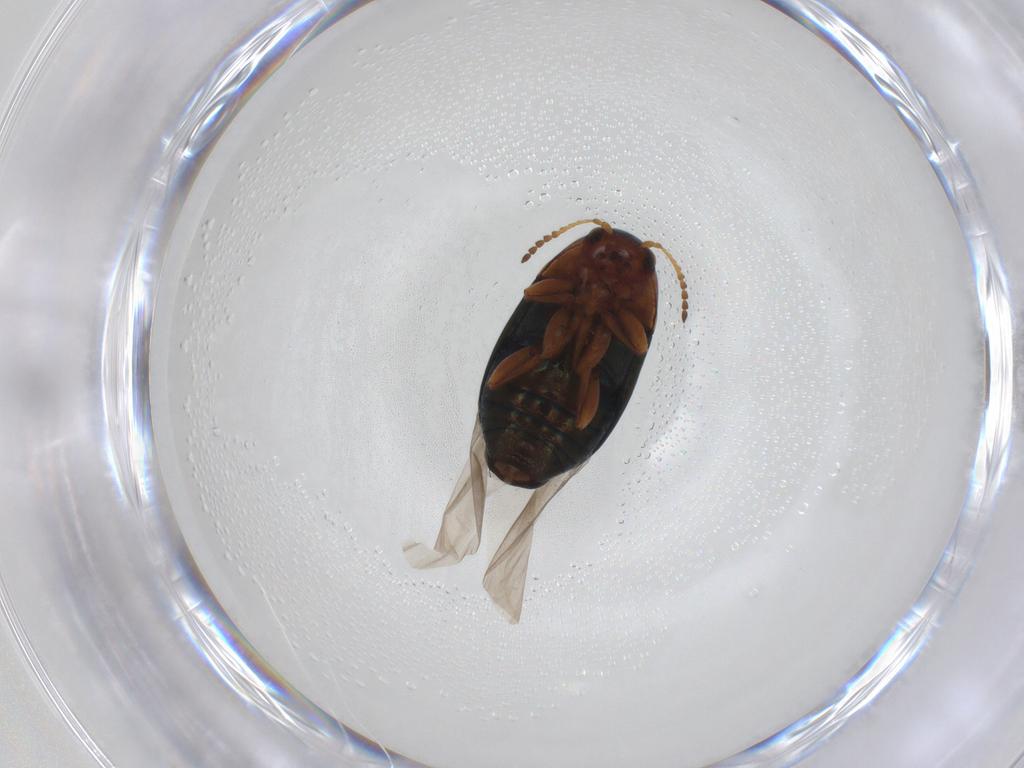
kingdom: Animalia
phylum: Arthropoda
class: Insecta
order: Coleoptera
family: Chrysomelidae
